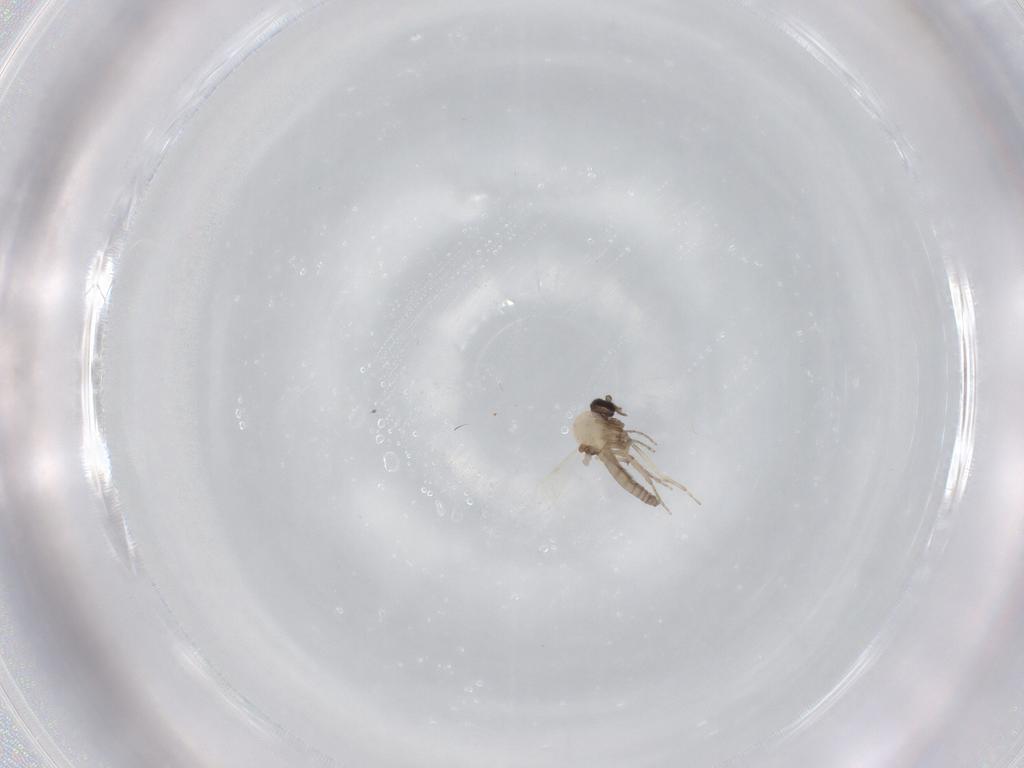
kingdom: Animalia
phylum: Arthropoda
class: Insecta
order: Diptera
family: Ceratopogonidae
